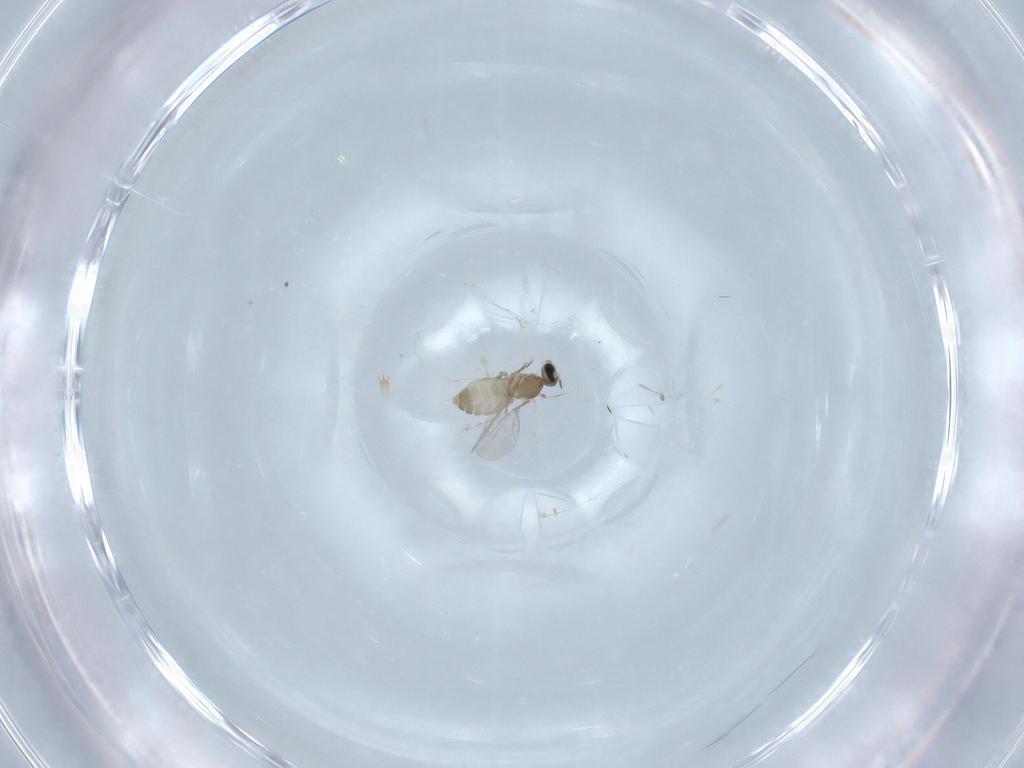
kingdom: Animalia
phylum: Arthropoda
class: Insecta
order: Diptera
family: Cecidomyiidae
